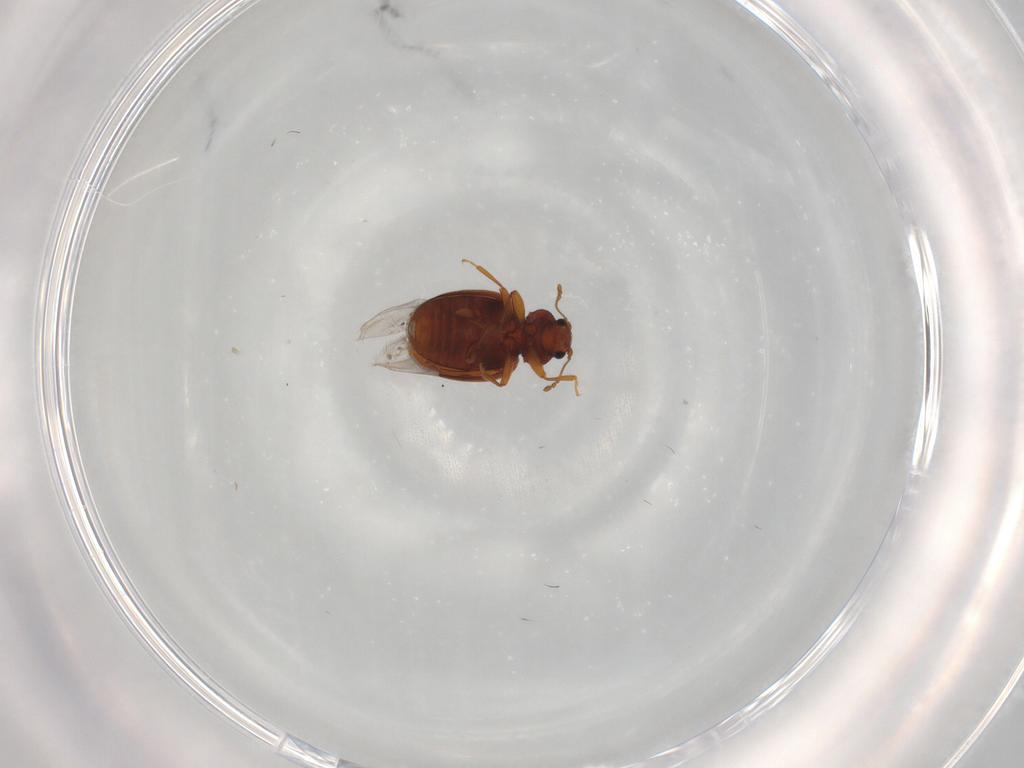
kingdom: Animalia
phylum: Arthropoda
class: Insecta
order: Coleoptera
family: Latridiidae
